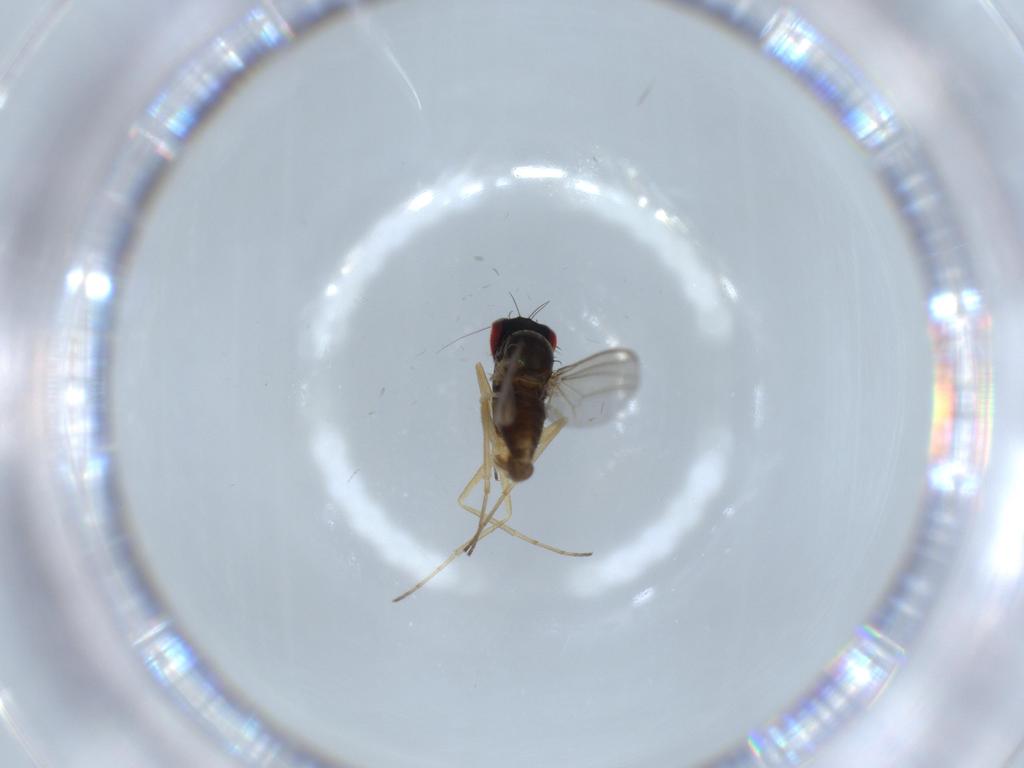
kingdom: Animalia
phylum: Arthropoda
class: Insecta
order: Diptera
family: Dolichopodidae
